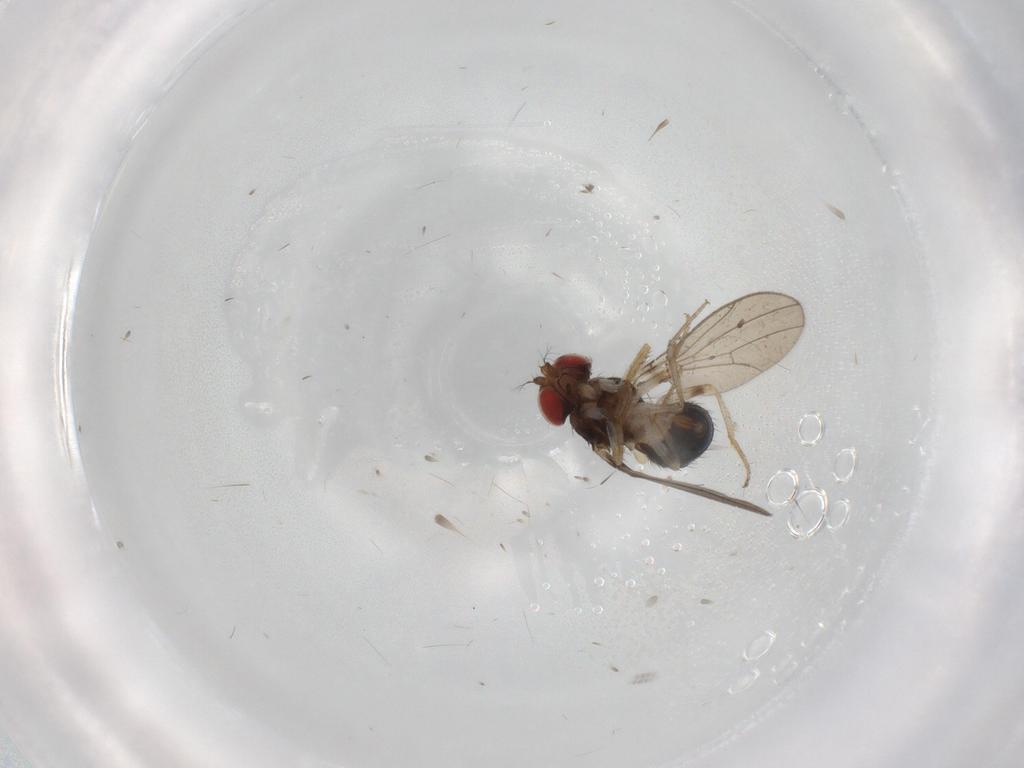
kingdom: Animalia
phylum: Arthropoda
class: Insecta
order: Diptera
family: Drosophilidae
